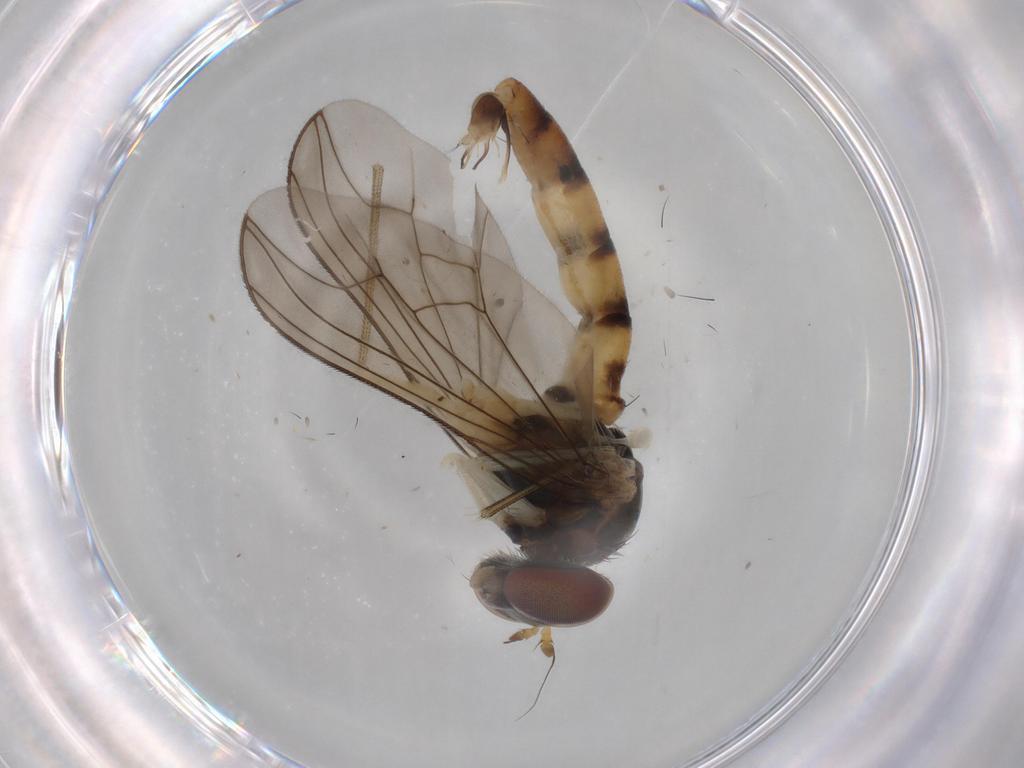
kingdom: Animalia
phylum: Arthropoda
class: Insecta
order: Diptera
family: Dolichopodidae
